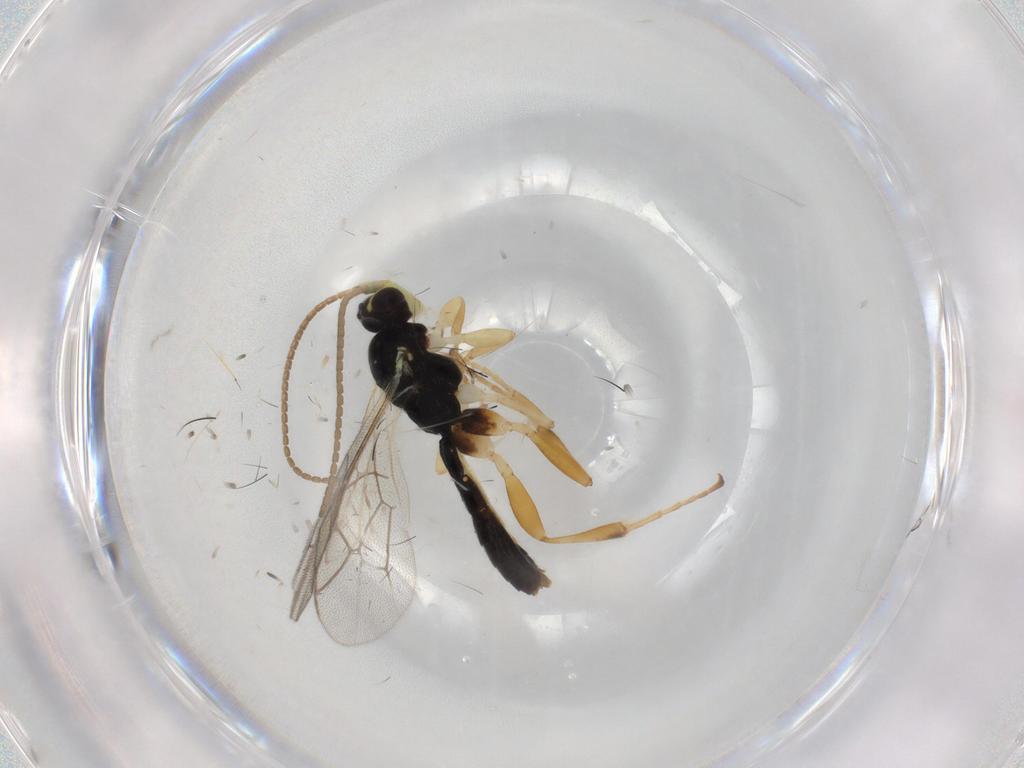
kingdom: Animalia
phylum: Arthropoda
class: Insecta
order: Hymenoptera
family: Ichneumonidae
